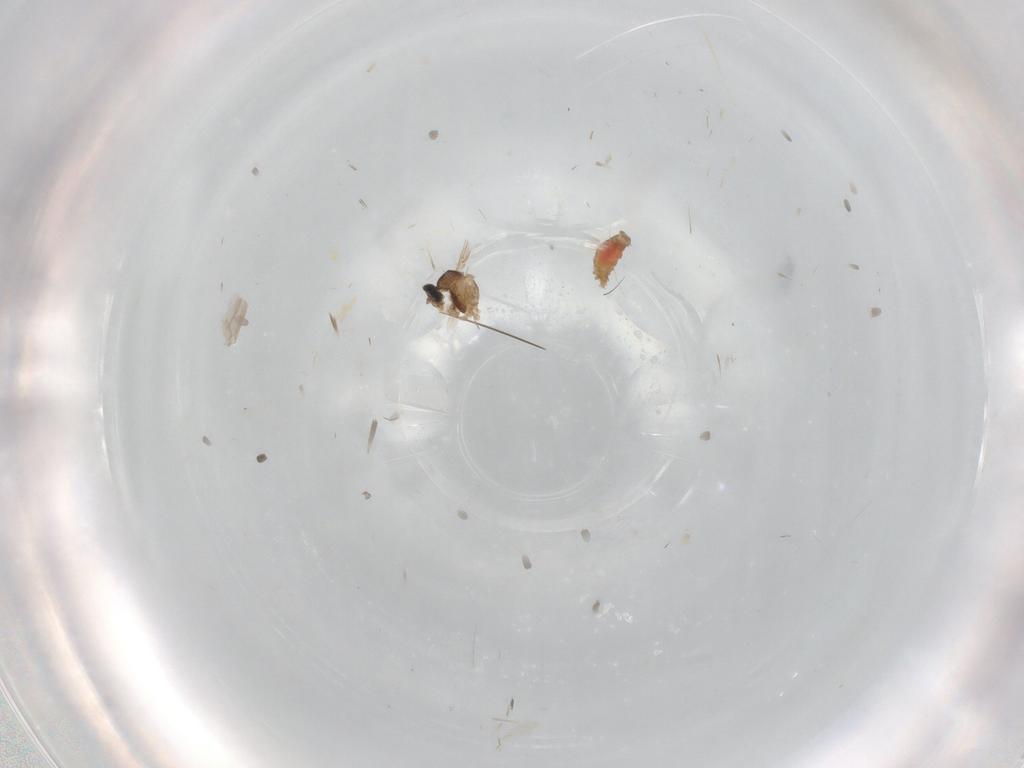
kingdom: Animalia
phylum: Arthropoda
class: Insecta
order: Diptera
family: Cecidomyiidae
